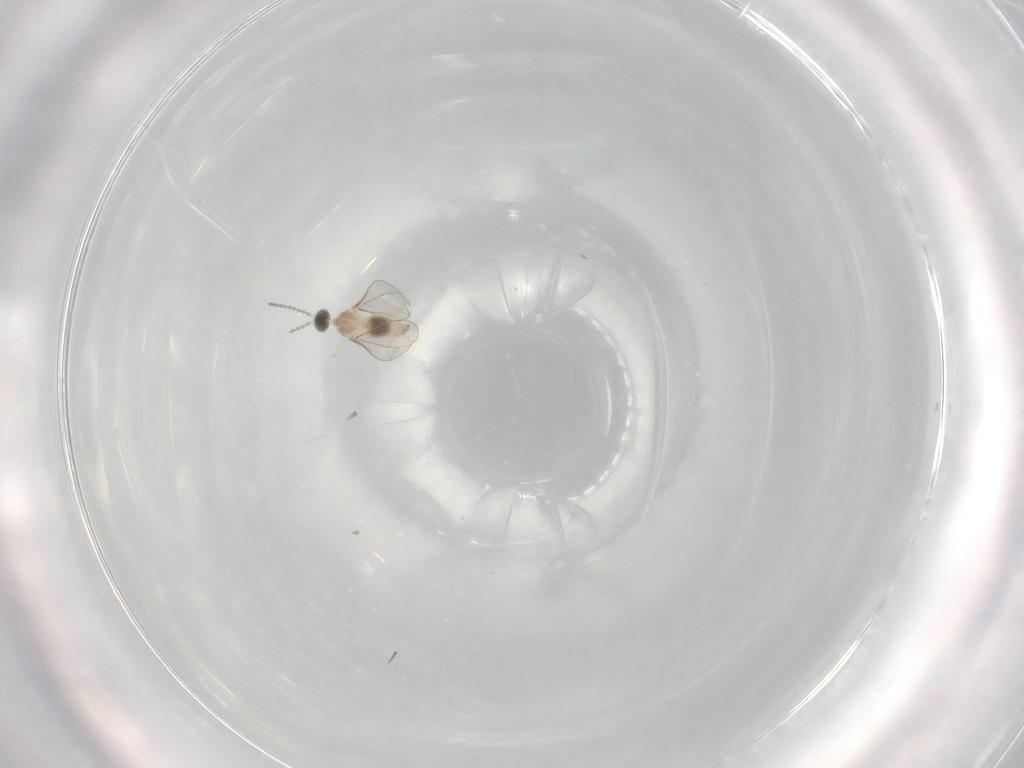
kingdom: Animalia
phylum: Arthropoda
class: Insecta
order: Diptera
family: Cecidomyiidae
